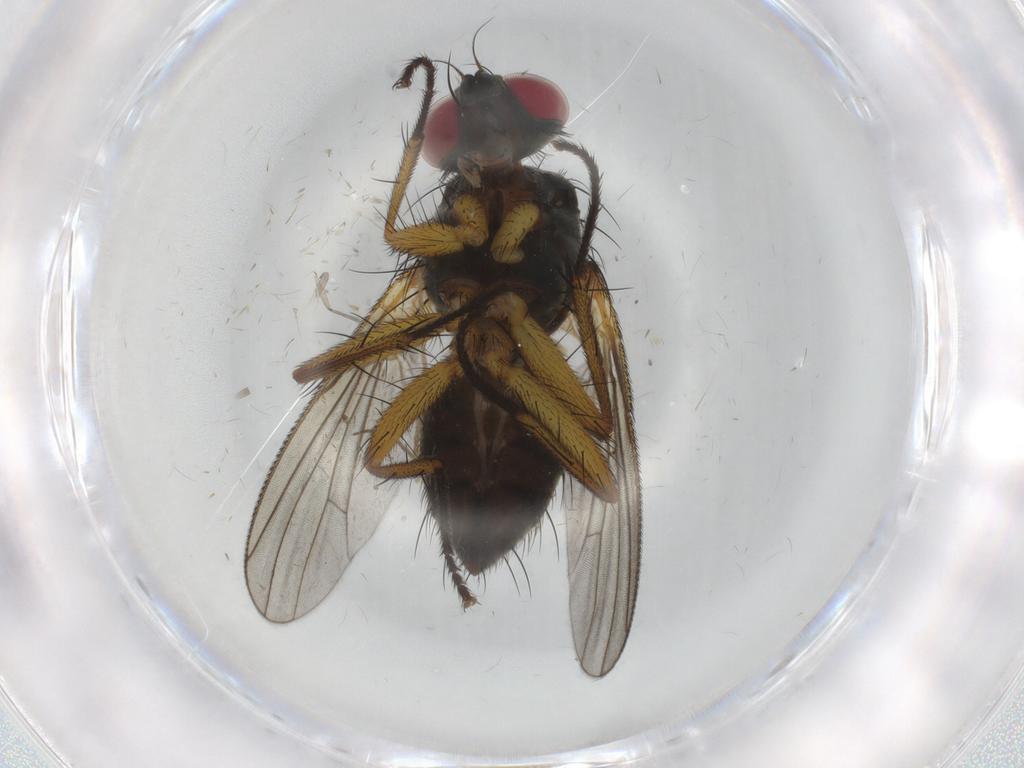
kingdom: Animalia
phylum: Arthropoda
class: Insecta
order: Diptera
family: Muscidae
